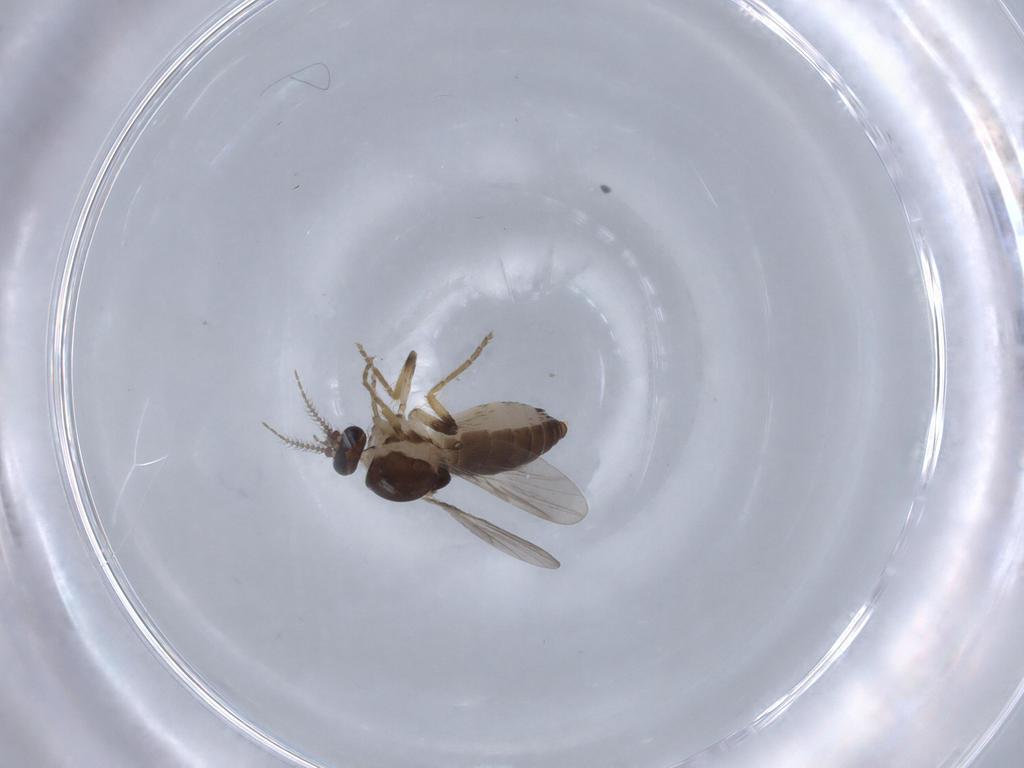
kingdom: Animalia
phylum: Arthropoda
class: Insecta
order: Diptera
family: Ceratopogonidae
